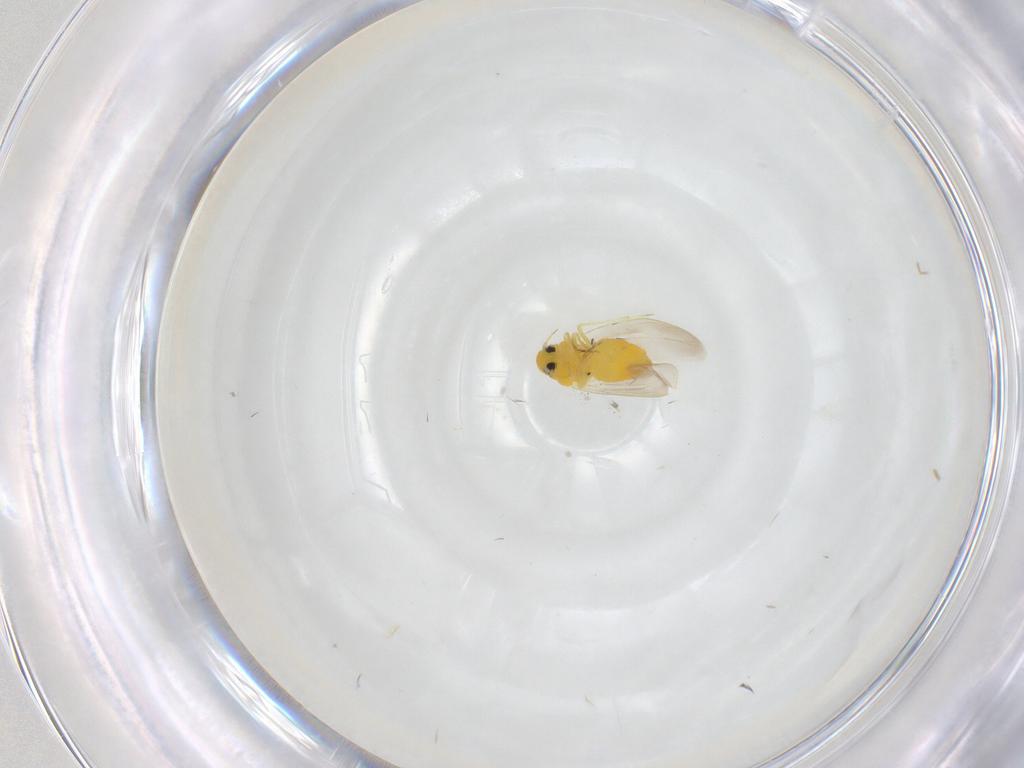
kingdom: Animalia
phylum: Arthropoda
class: Insecta
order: Hemiptera
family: Aleyrodidae
